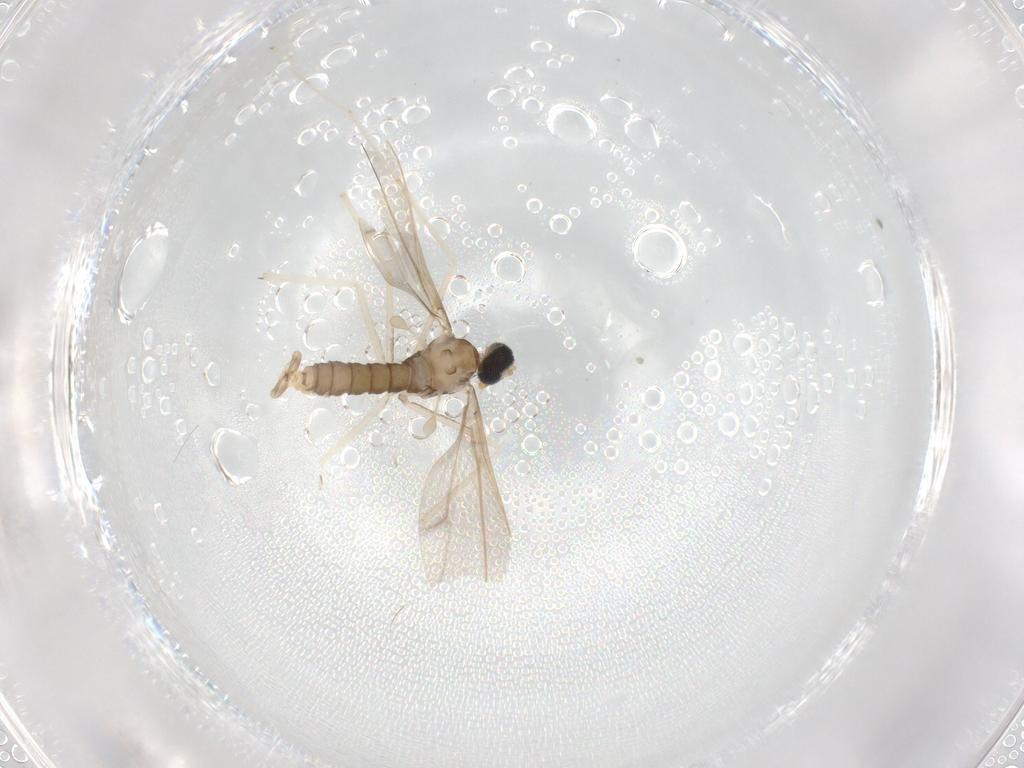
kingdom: Animalia
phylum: Arthropoda
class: Insecta
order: Diptera
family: Cecidomyiidae
